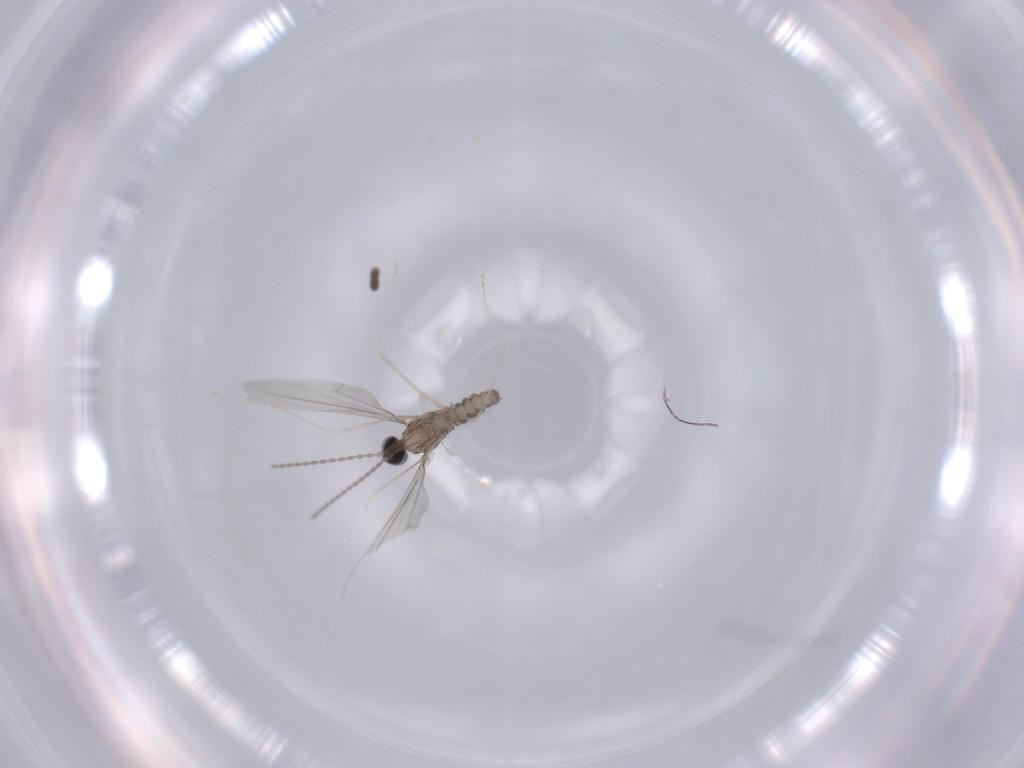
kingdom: Animalia
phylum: Arthropoda
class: Insecta
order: Diptera
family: Cecidomyiidae
